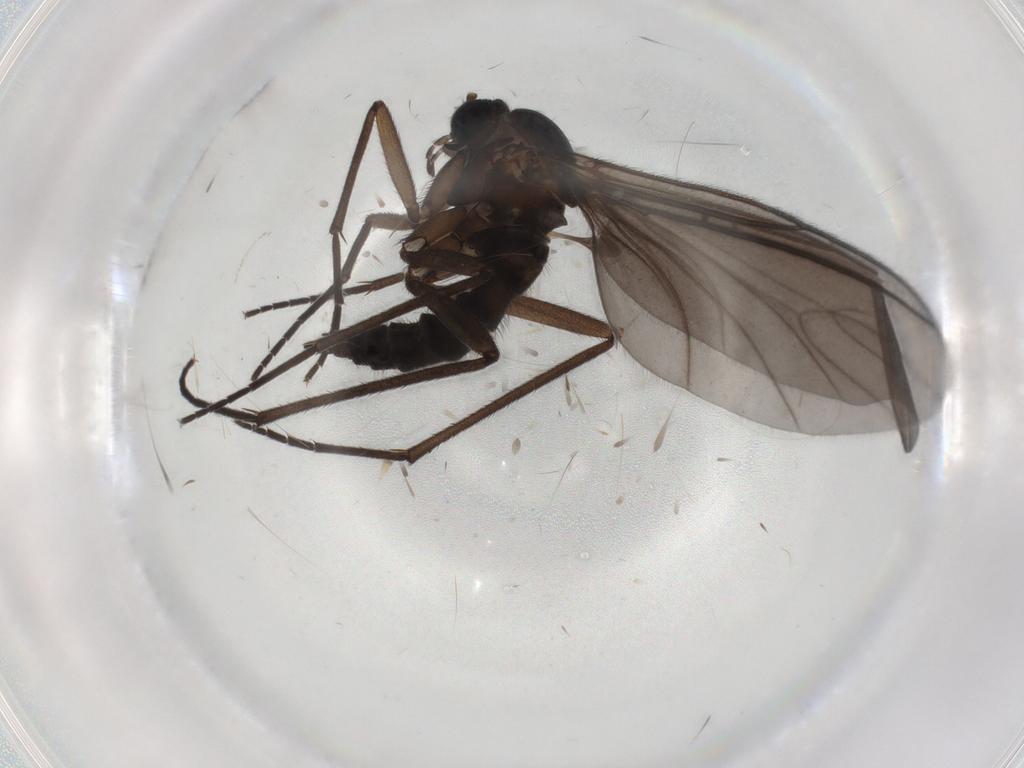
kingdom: Animalia
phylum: Arthropoda
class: Insecta
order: Diptera
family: Sciaridae
